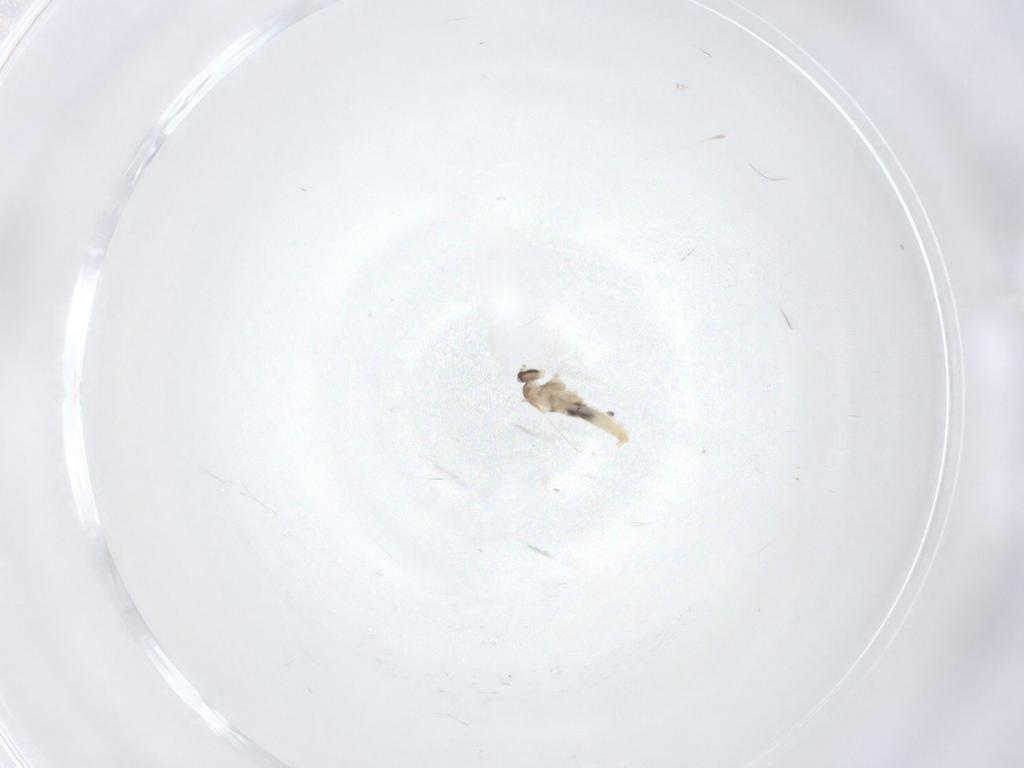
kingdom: Animalia
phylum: Arthropoda
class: Insecta
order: Diptera
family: Cecidomyiidae
